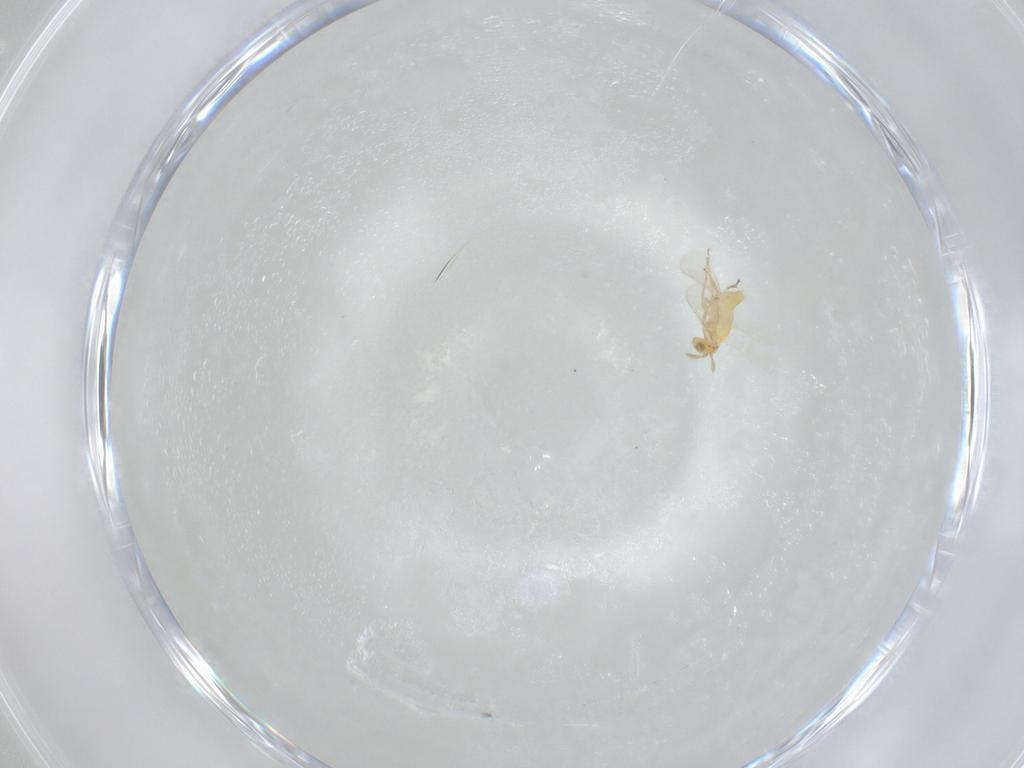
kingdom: Animalia
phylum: Arthropoda
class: Insecta
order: Hymenoptera
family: Aphelinidae
